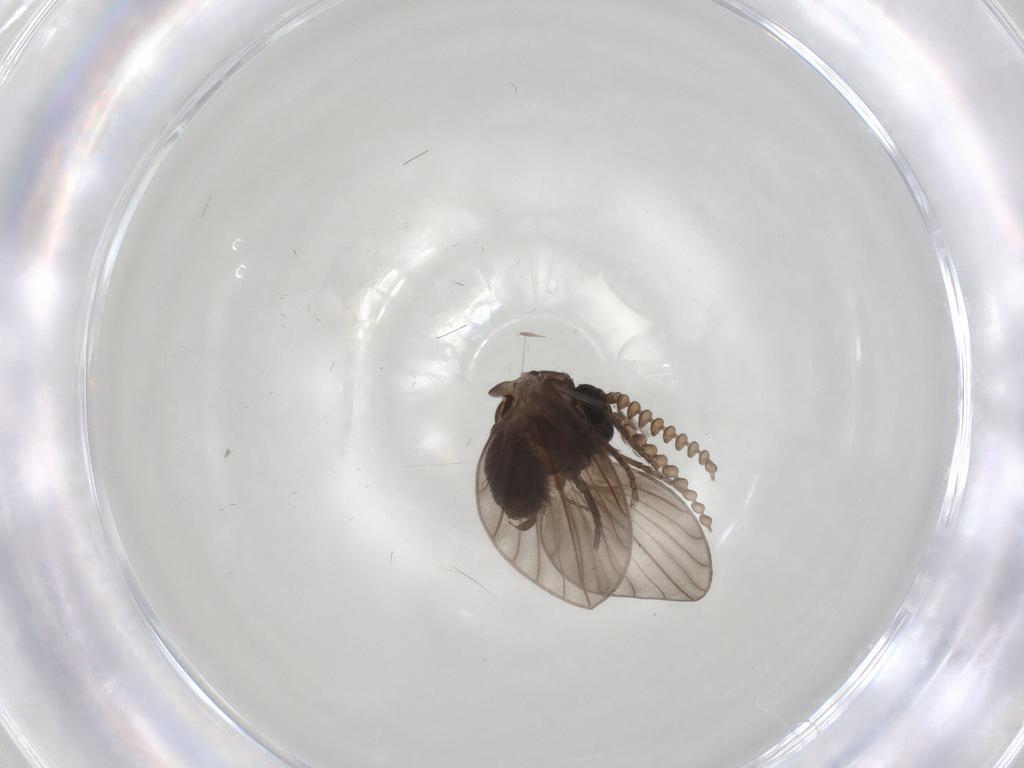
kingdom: Animalia
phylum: Arthropoda
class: Insecta
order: Diptera
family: Psychodidae
